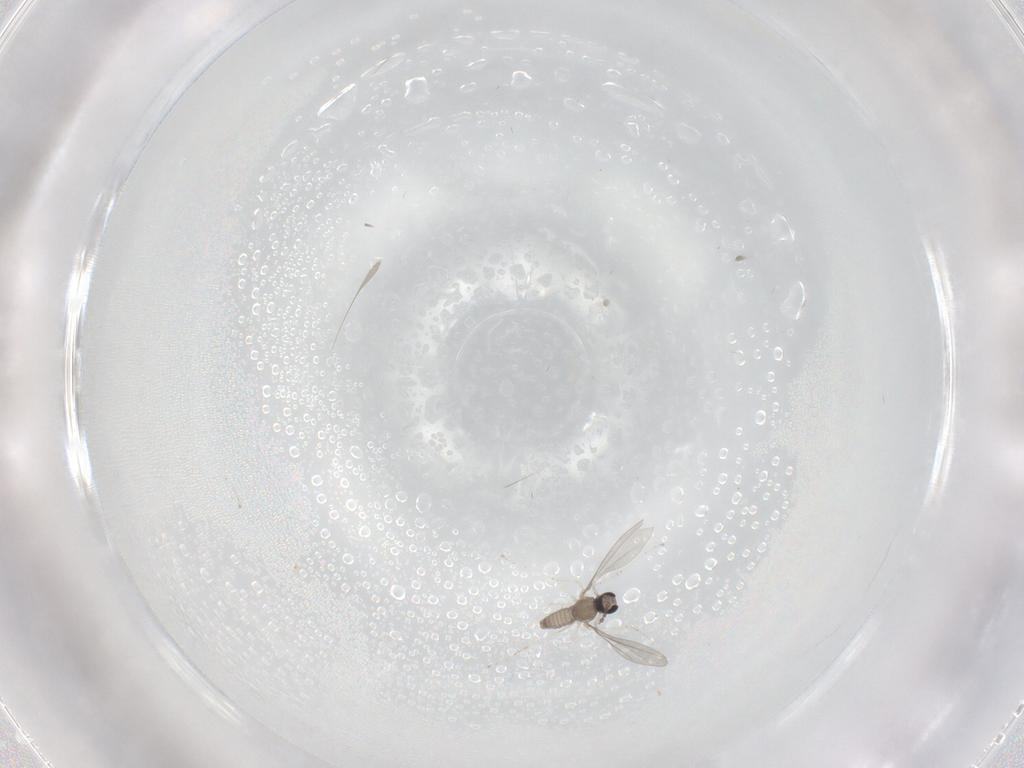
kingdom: Animalia
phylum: Arthropoda
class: Insecta
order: Diptera
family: Cecidomyiidae
